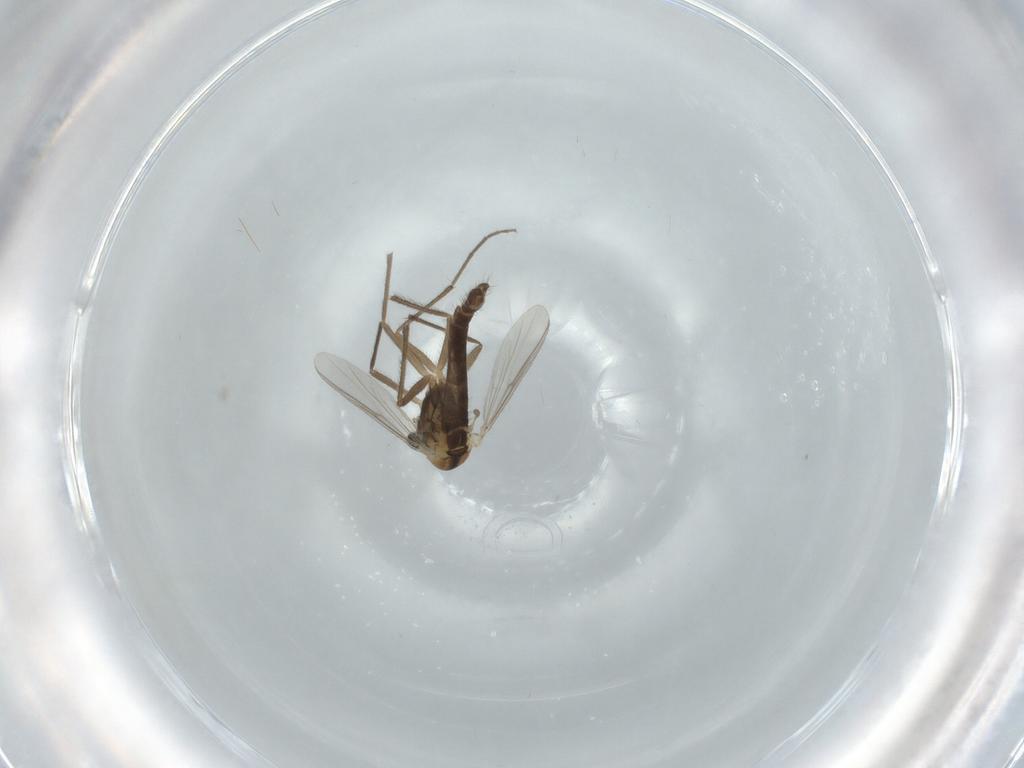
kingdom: Animalia
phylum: Arthropoda
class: Insecta
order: Diptera
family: Chironomidae
